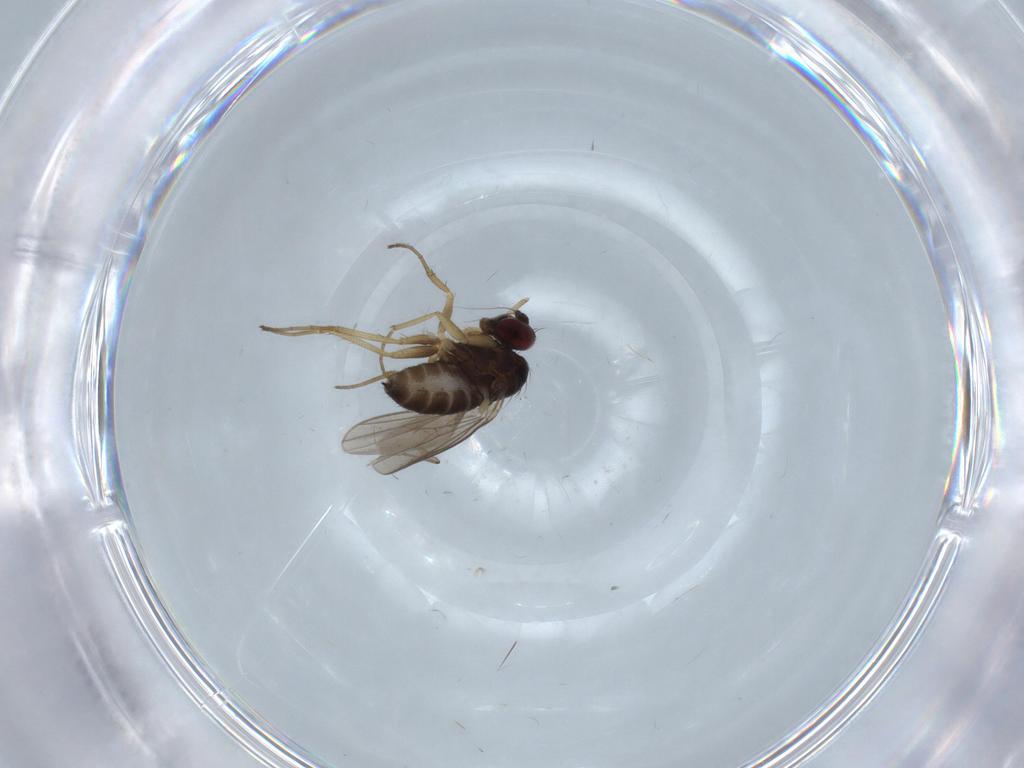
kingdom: Animalia
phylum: Arthropoda
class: Insecta
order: Diptera
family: Dolichopodidae
